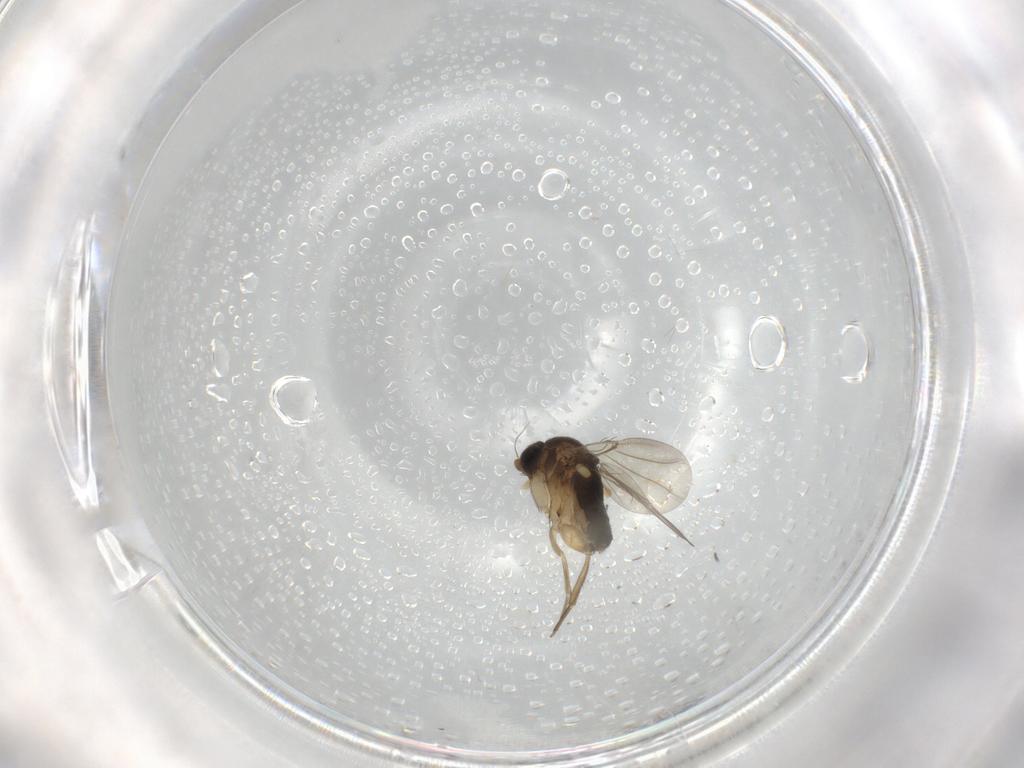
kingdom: Animalia
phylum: Arthropoda
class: Insecta
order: Diptera
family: Phoridae
